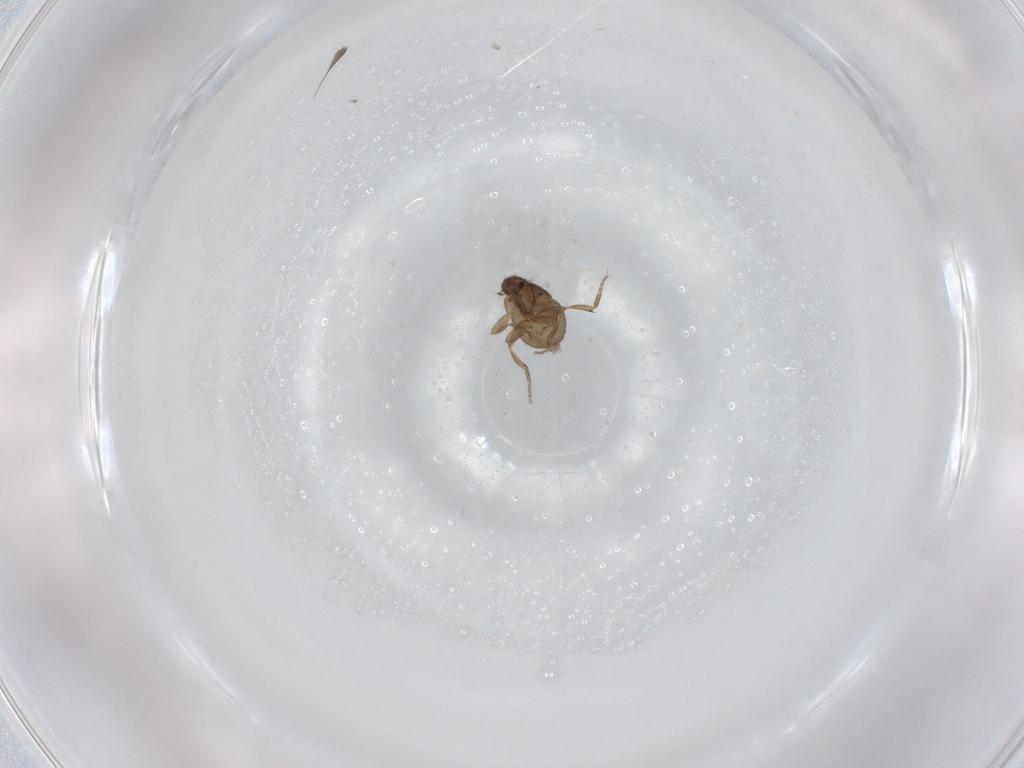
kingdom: Animalia
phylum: Arthropoda
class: Insecta
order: Diptera
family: Phoridae
